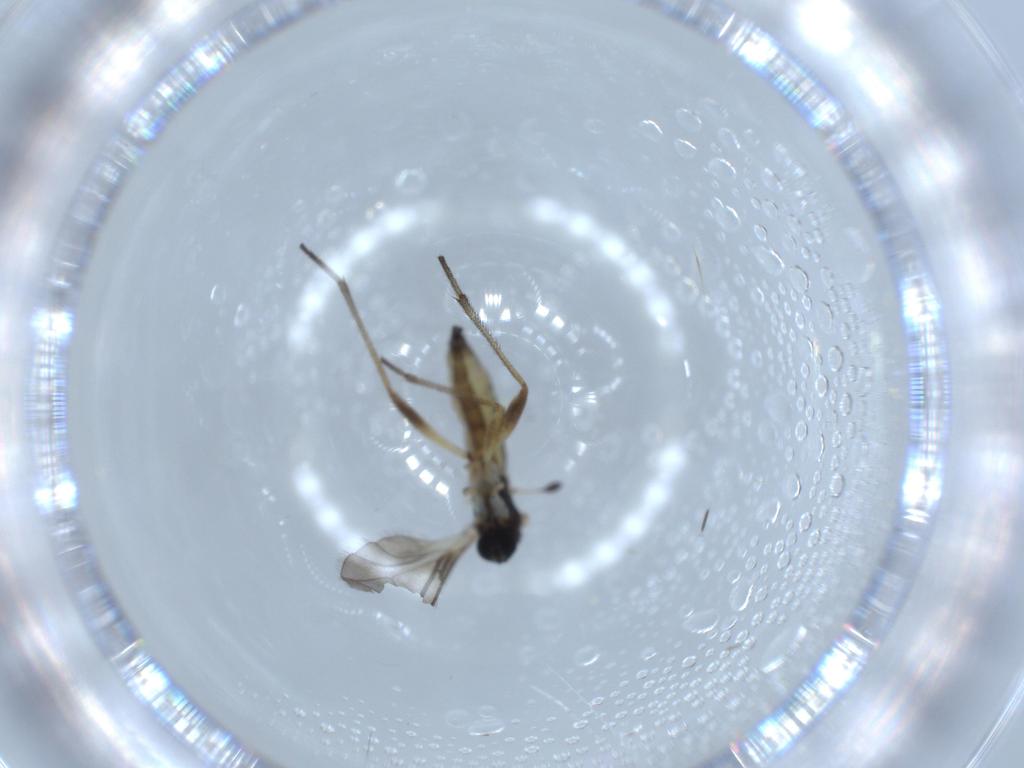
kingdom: Animalia
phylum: Arthropoda
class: Insecta
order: Diptera
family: Sciaridae
